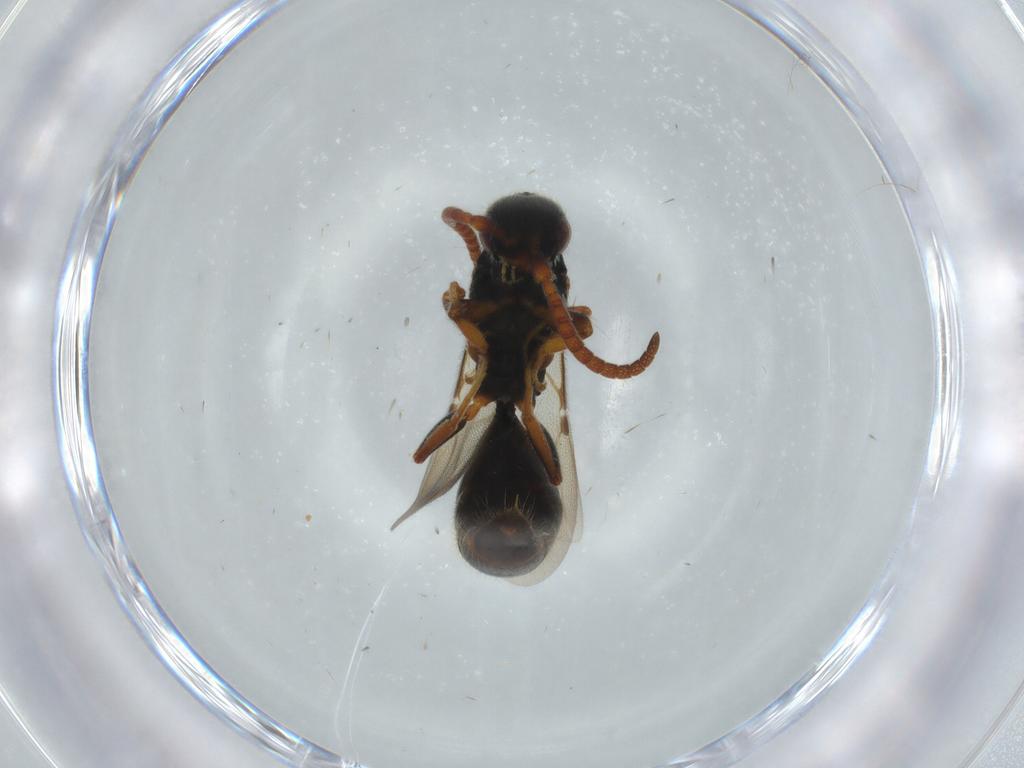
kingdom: Animalia
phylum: Arthropoda
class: Insecta
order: Hymenoptera
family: Bethylidae
